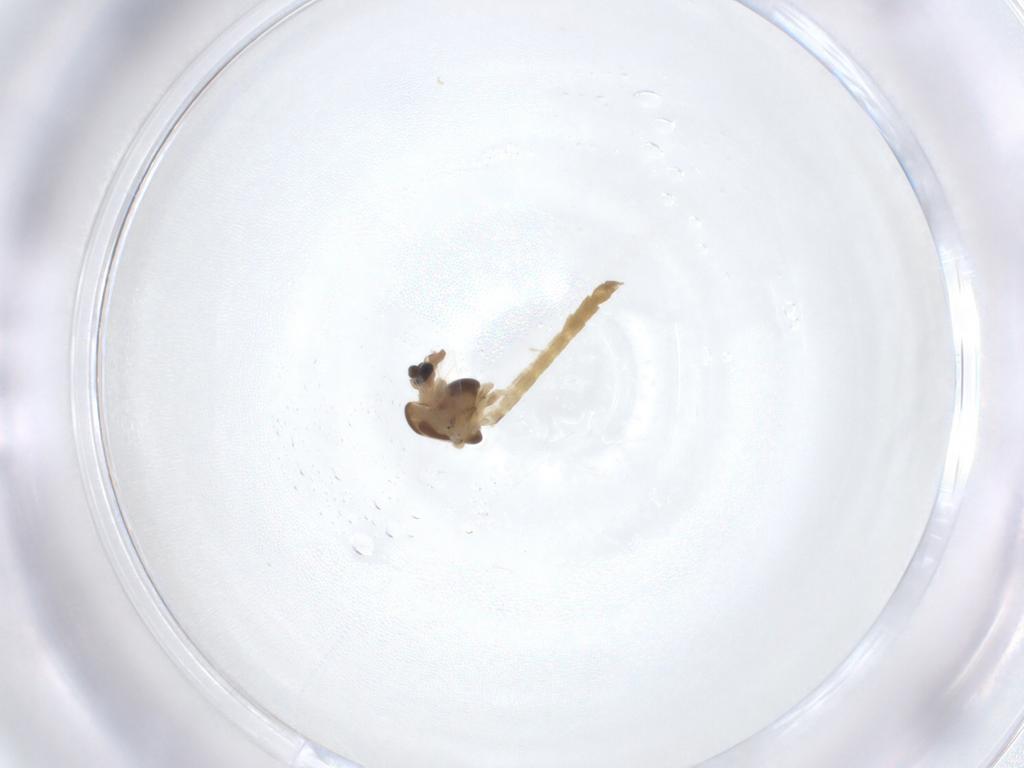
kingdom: Animalia
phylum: Arthropoda
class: Insecta
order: Diptera
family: Chironomidae
